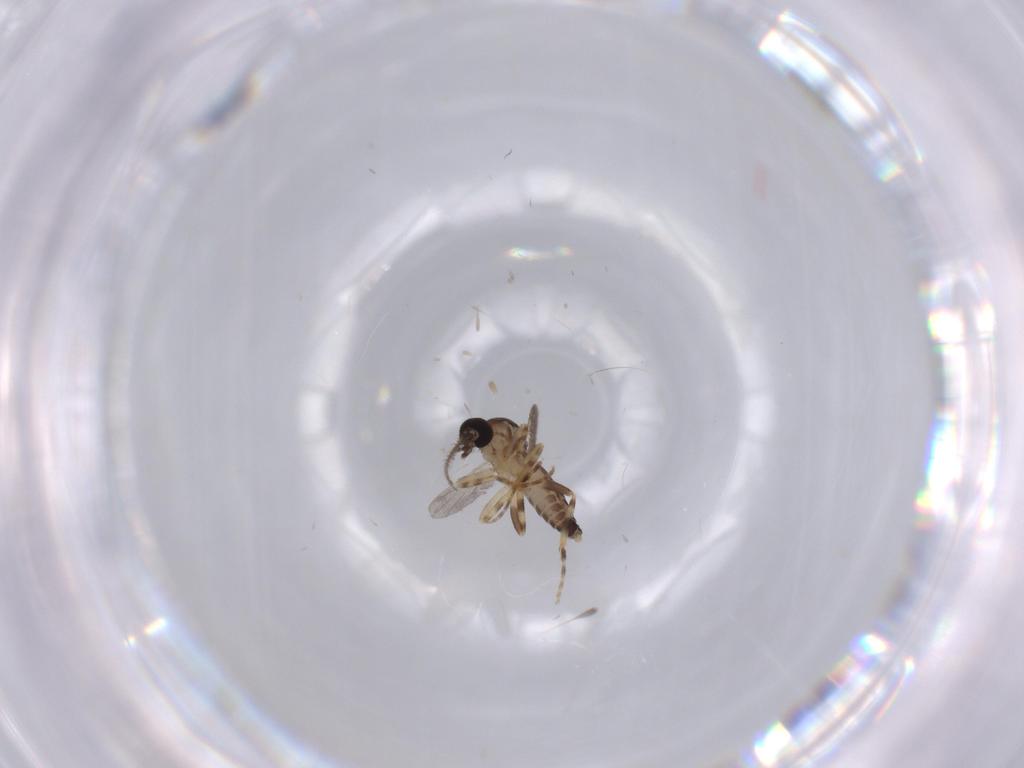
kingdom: Animalia
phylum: Arthropoda
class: Insecta
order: Diptera
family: Ceratopogonidae
